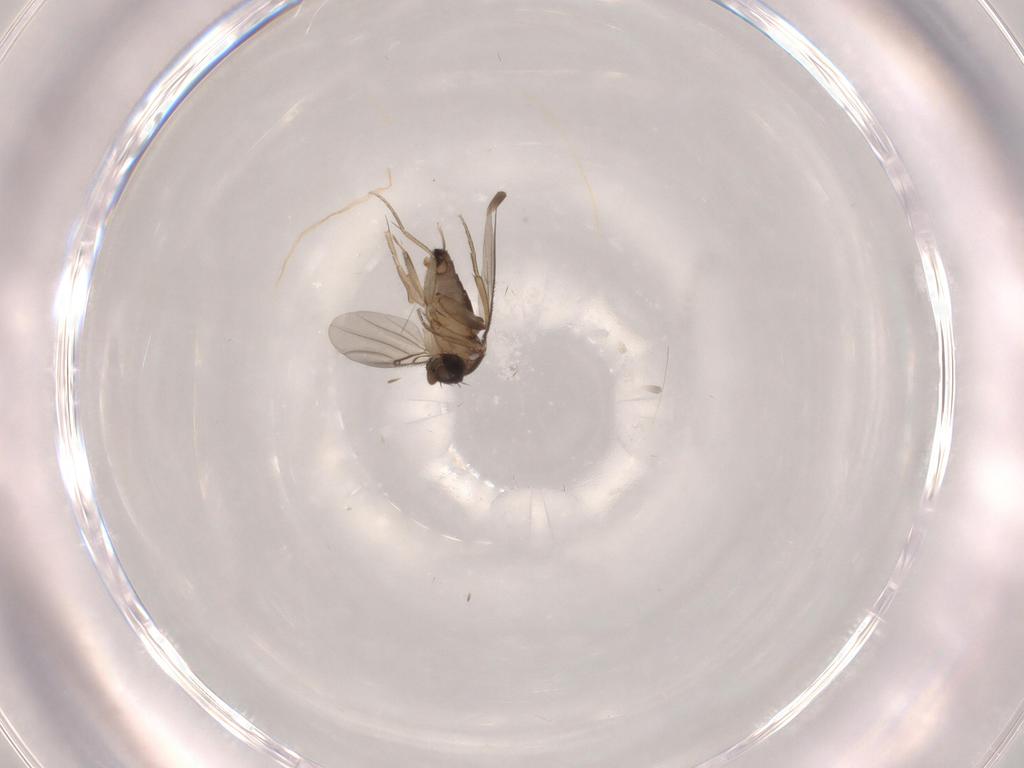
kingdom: Animalia
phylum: Arthropoda
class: Insecta
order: Diptera
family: Phoridae
